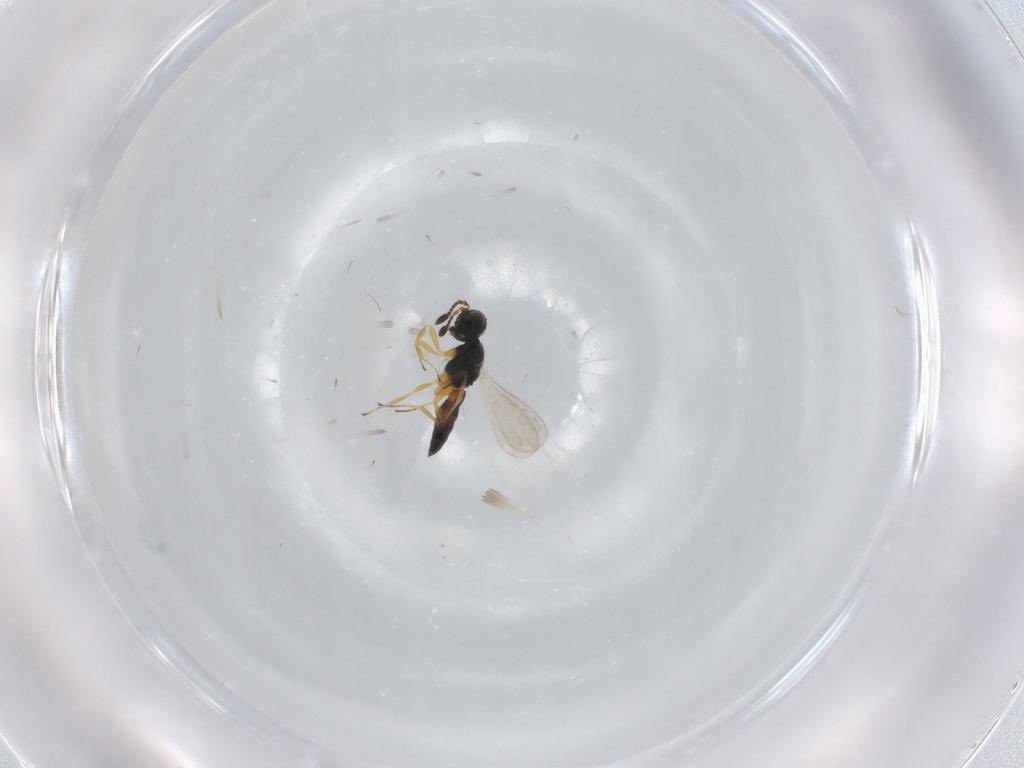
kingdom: Animalia
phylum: Arthropoda
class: Insecta
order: Hymenoptera
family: Scelionidae
